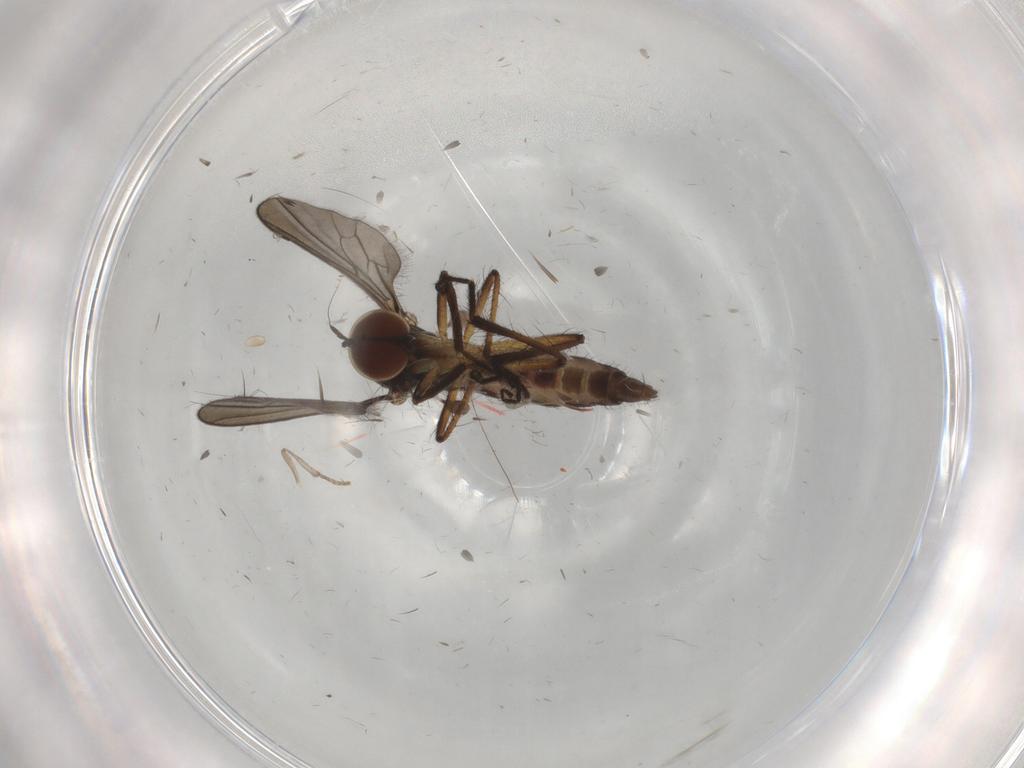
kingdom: Animalia
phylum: Arthropoda
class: Insecta
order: Diptera
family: Hybotidae
